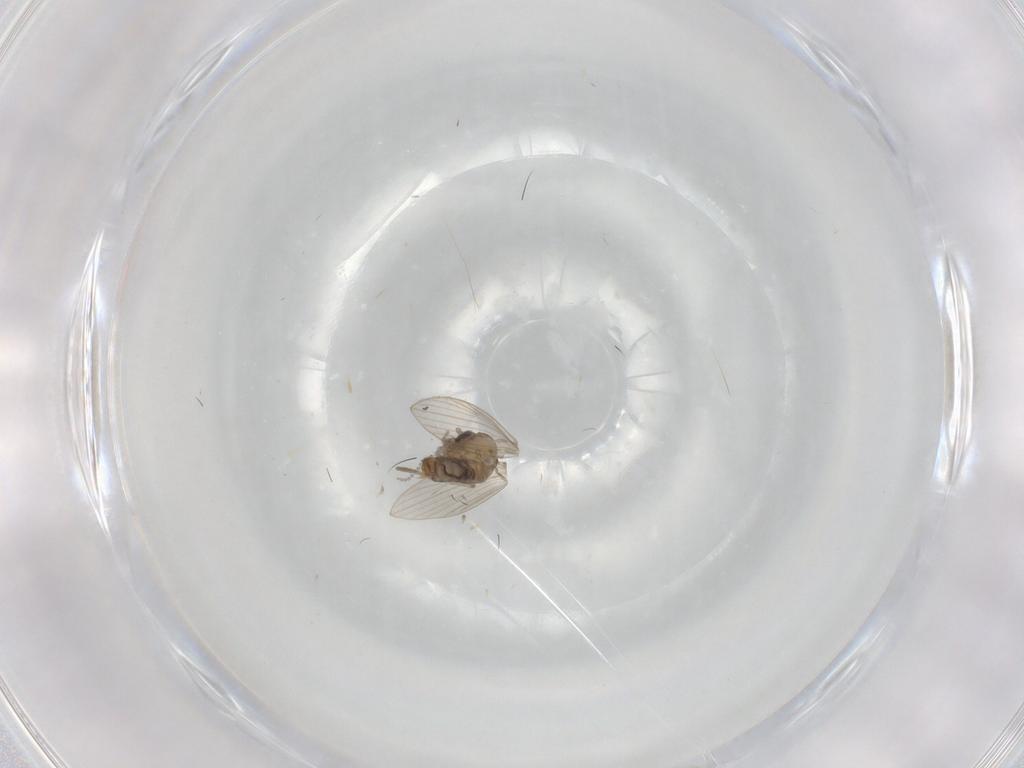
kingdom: Animalia
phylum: Arthropoda
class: Insecta
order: Diptera
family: Psychodidae
